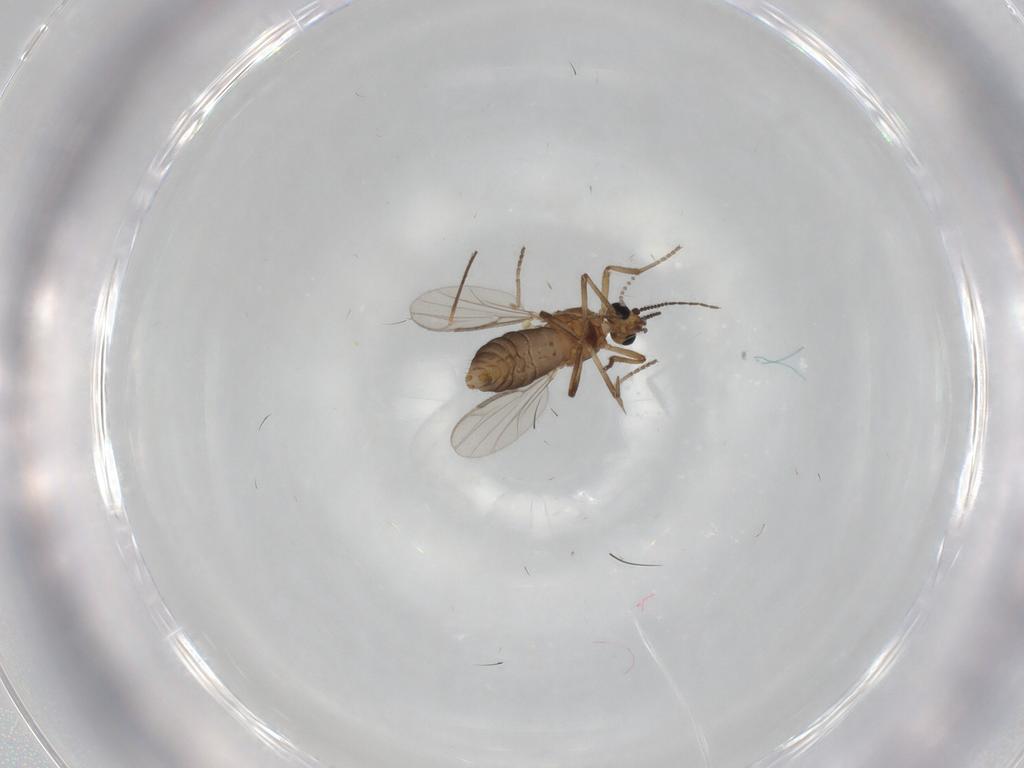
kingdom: Animalia
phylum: Arthropoda
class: Insecta
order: Diptera
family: Ceratopogonidae
